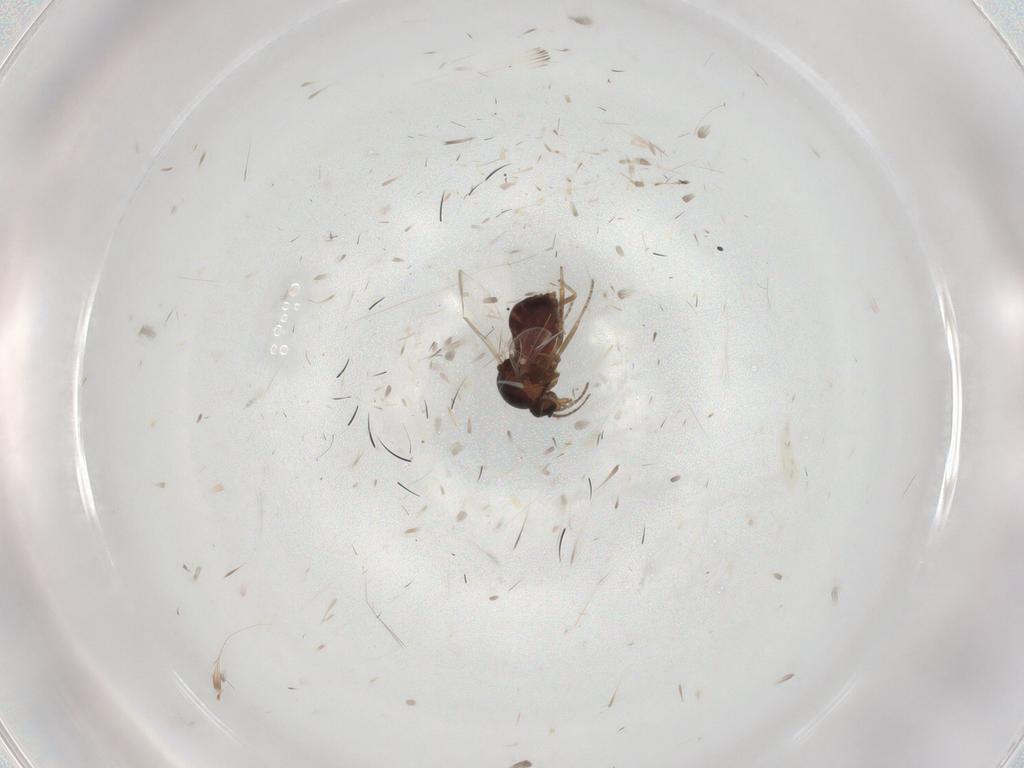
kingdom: Animalia
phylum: Arthropoda
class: Insecta
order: Diptera
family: Ceratopogonidae
